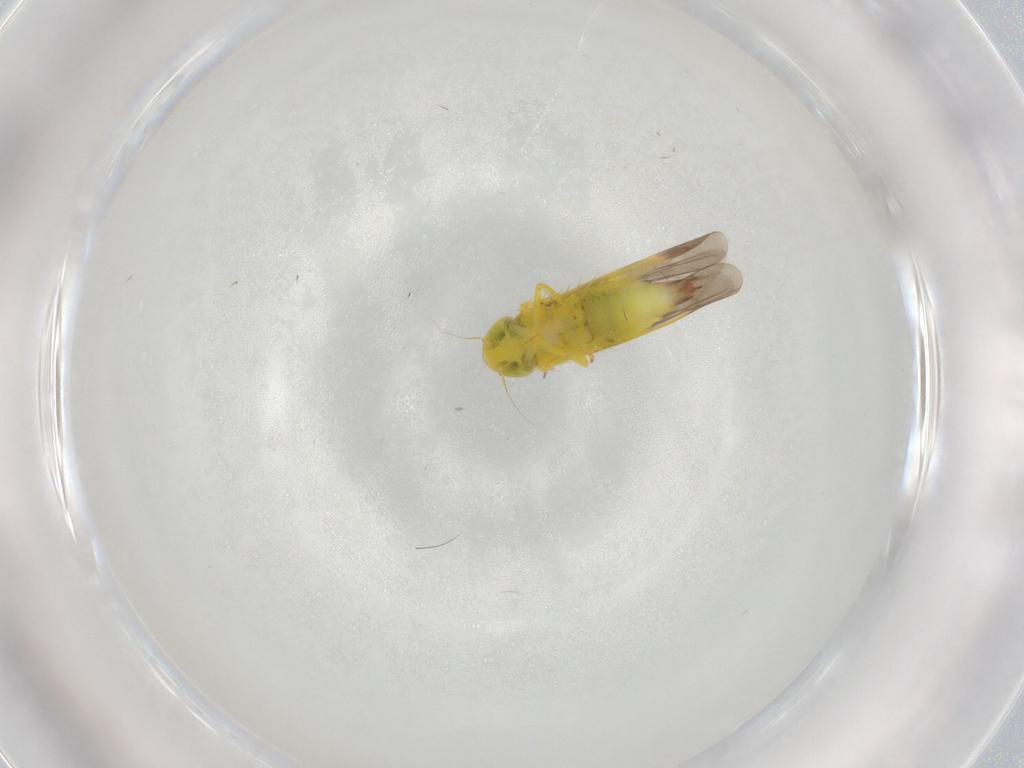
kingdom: Animalia
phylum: Arthropoda
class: Insecta
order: Hemiptera
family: Cicadellidae
